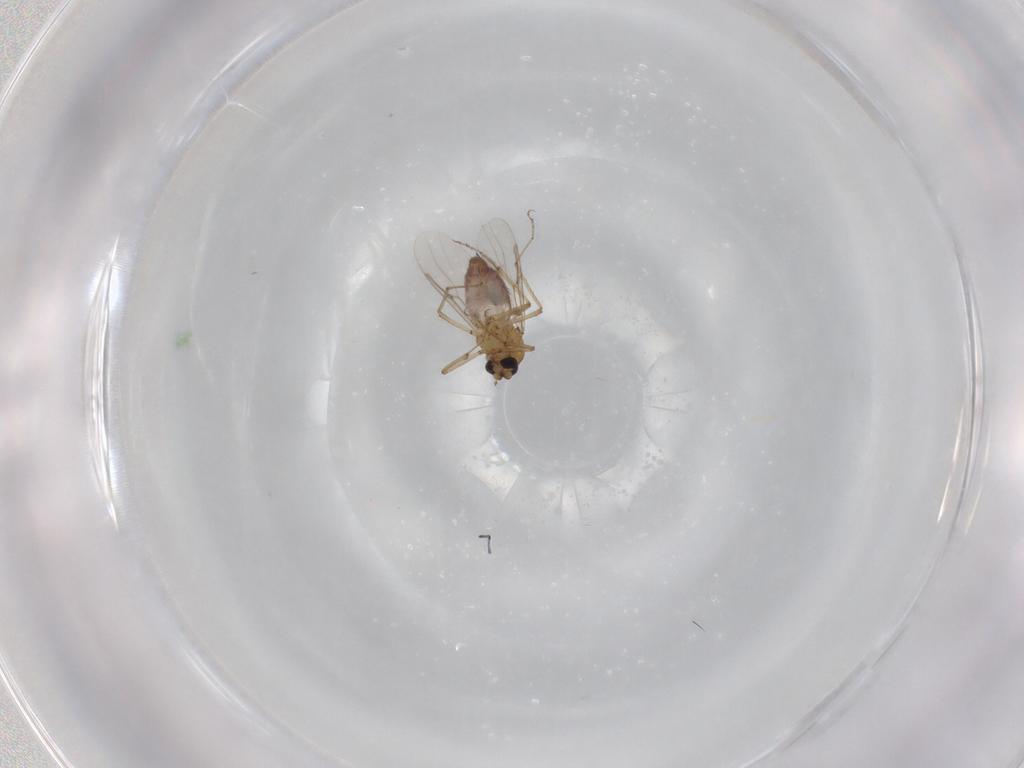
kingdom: Animalia
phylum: Arthropoda
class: Insecta
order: Diptera
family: Ceratopogonidae
